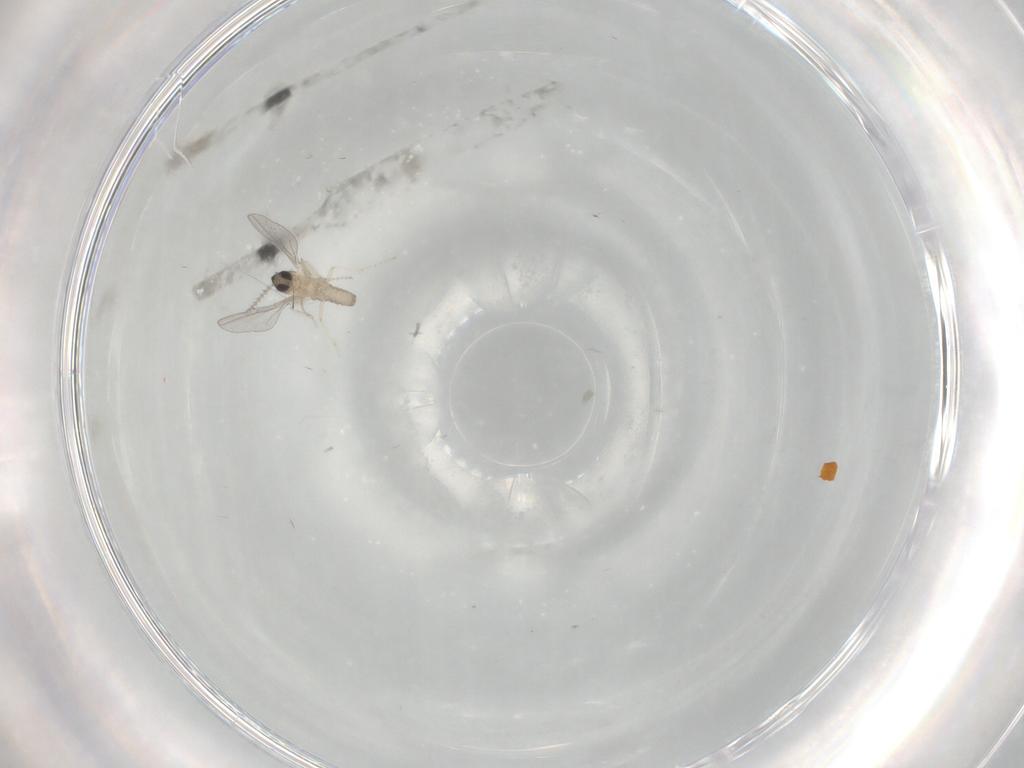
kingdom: Animalia
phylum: Arthropoda
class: Insecta
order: Diptera
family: Cecidomyiidae
